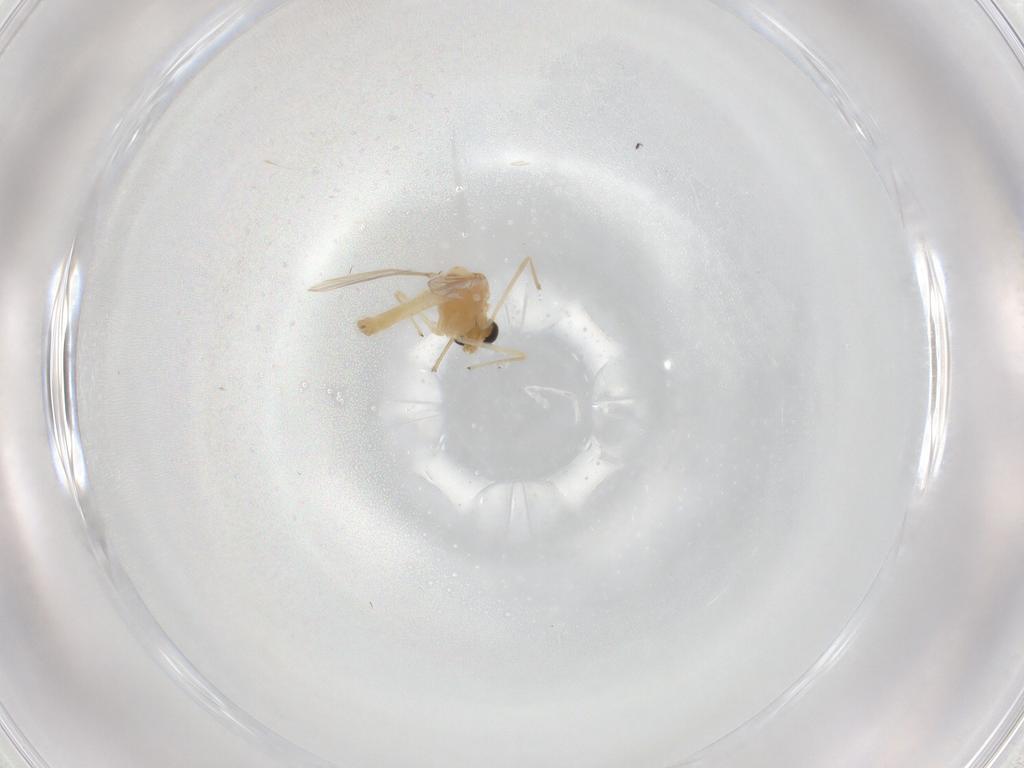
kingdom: Animalia
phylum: Arthropoda
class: Insecta
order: Diptera
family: Chironomidae
